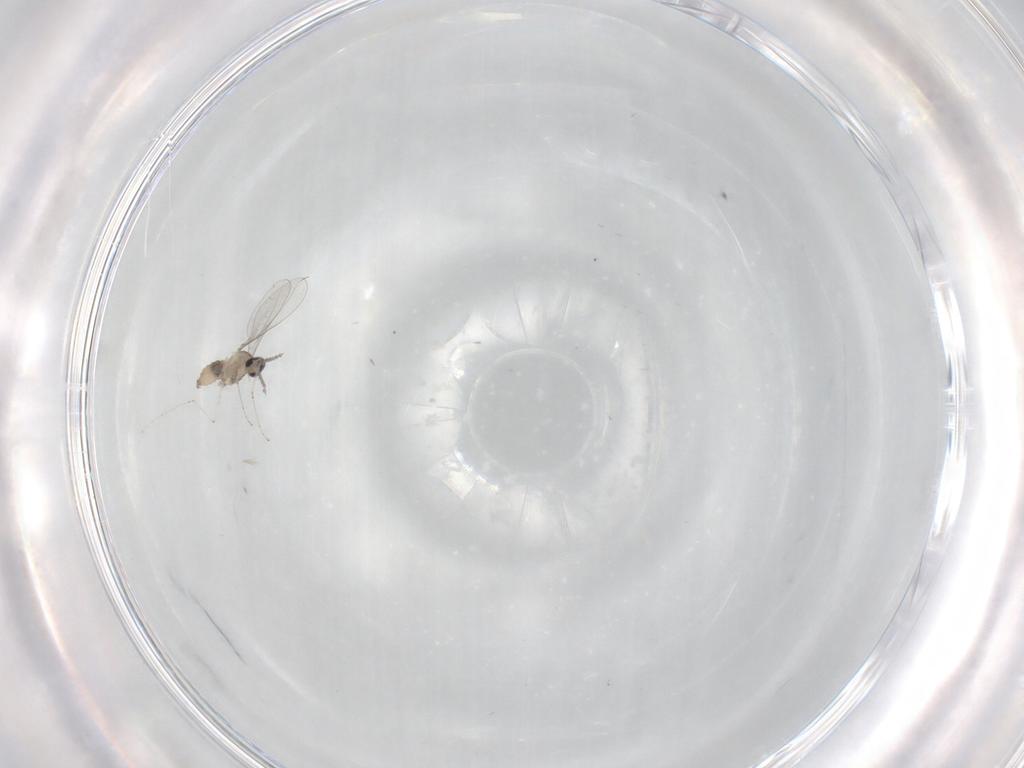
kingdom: Animalia
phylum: Arthropoda
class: Insecta
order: Diptera
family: Cecidomyiidae
